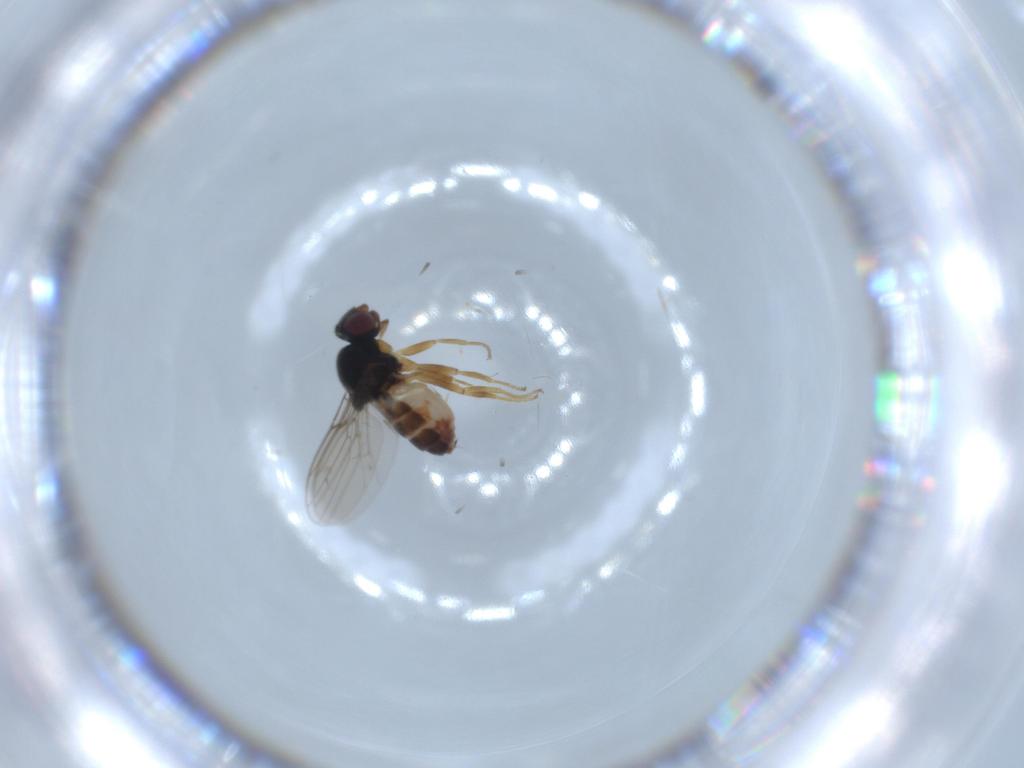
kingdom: Animalia
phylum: Arthropoda
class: Insecta
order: Diptera
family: Chloropidae
